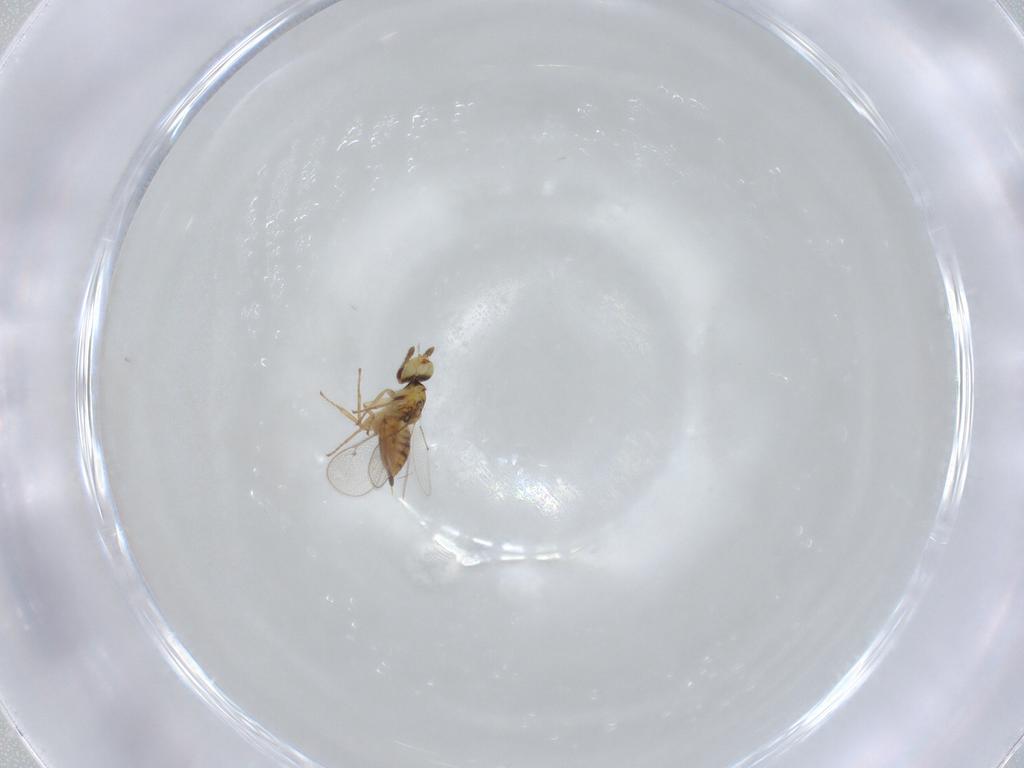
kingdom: Animalia
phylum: Arthropoda
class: Insecta
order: Hymenoptera
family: Eulophidae
